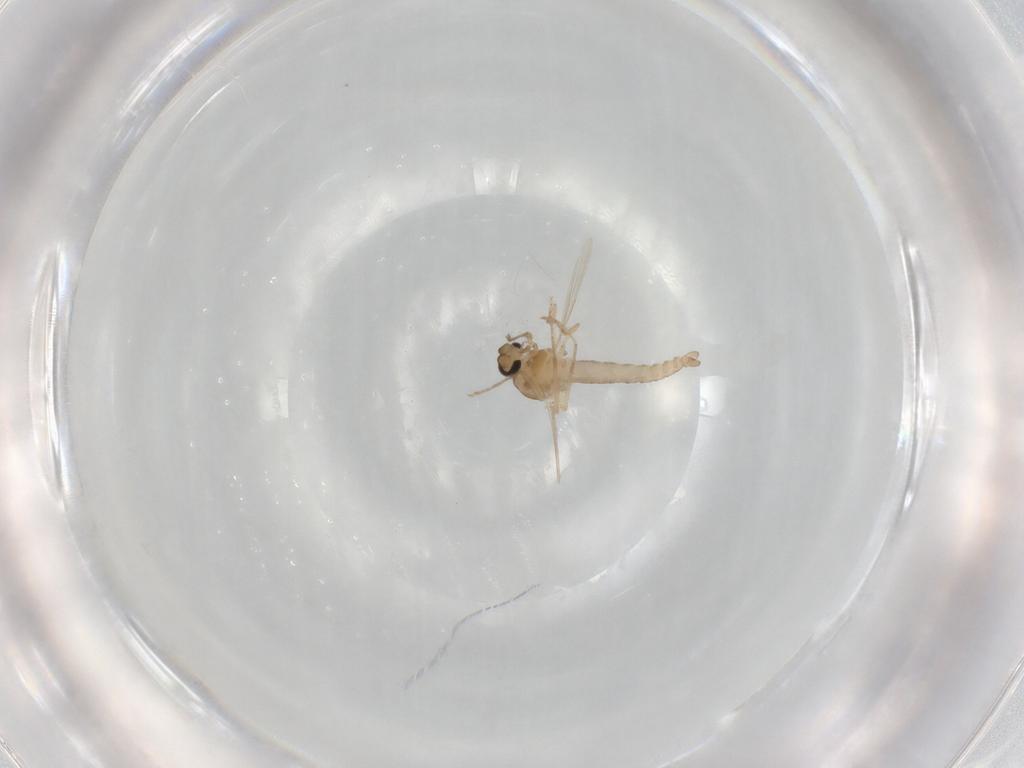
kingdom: Animalia
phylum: Arthropoda
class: Insecta
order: Diptera
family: Ceratopogonidae
